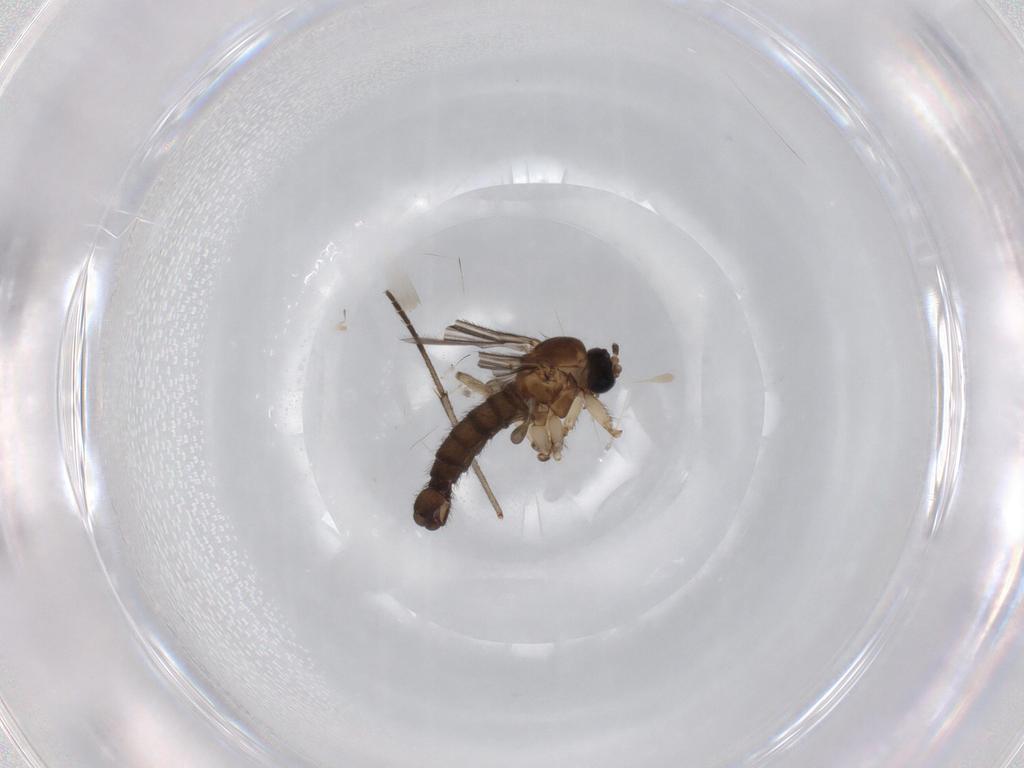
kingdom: Animalia
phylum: Arthropoda
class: Insecta
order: Diptera
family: Sciaridae
